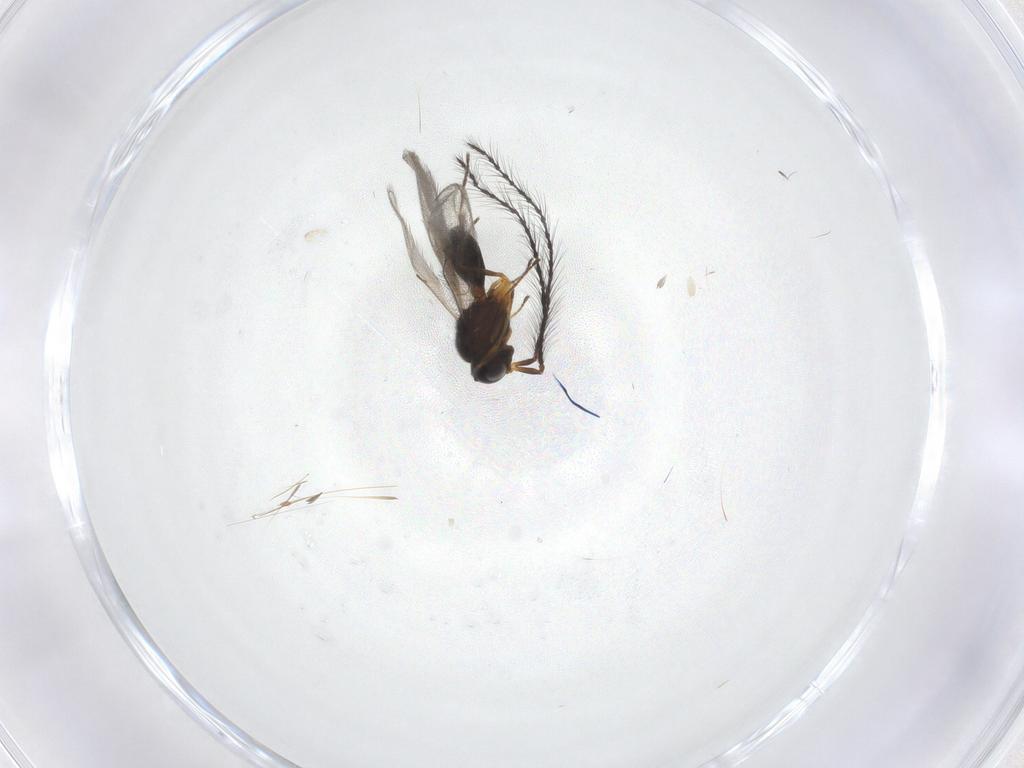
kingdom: Animalia
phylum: Arthropoda
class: Insecta
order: Hymenoptera
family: Scelionidae
